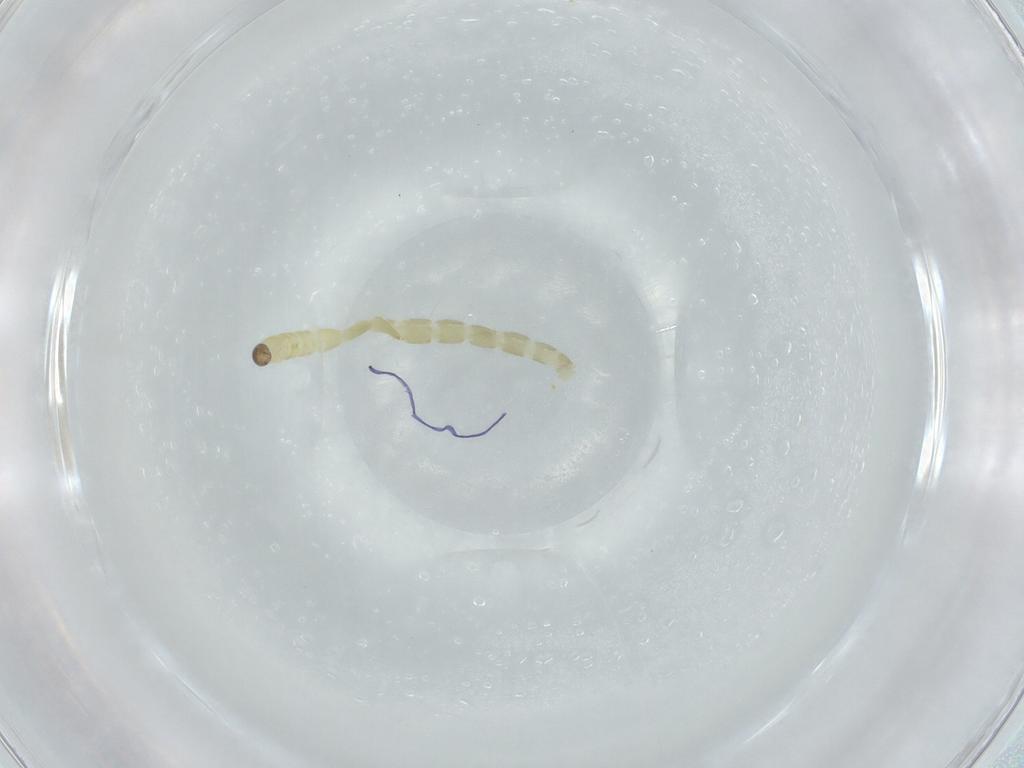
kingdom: Animalia
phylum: Arthropoda
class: Insecta
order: Diptera
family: Chironomidae
